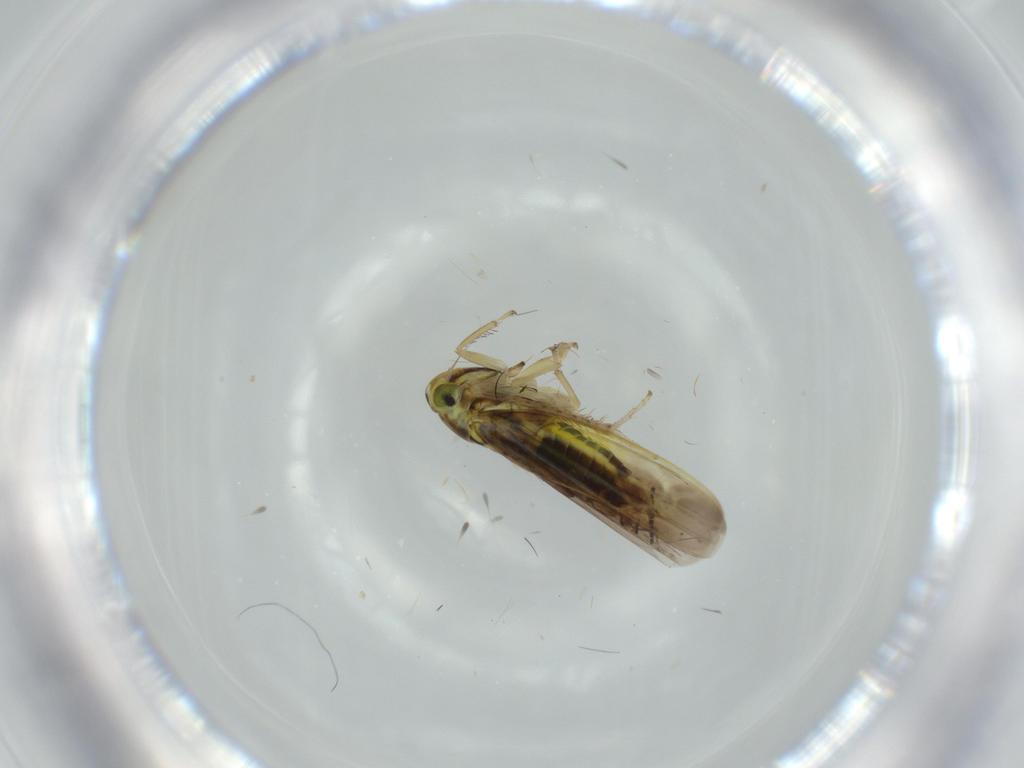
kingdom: Animalia
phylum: Arthropoda
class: Insecta
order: Hemiptera
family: Cicadellidae
